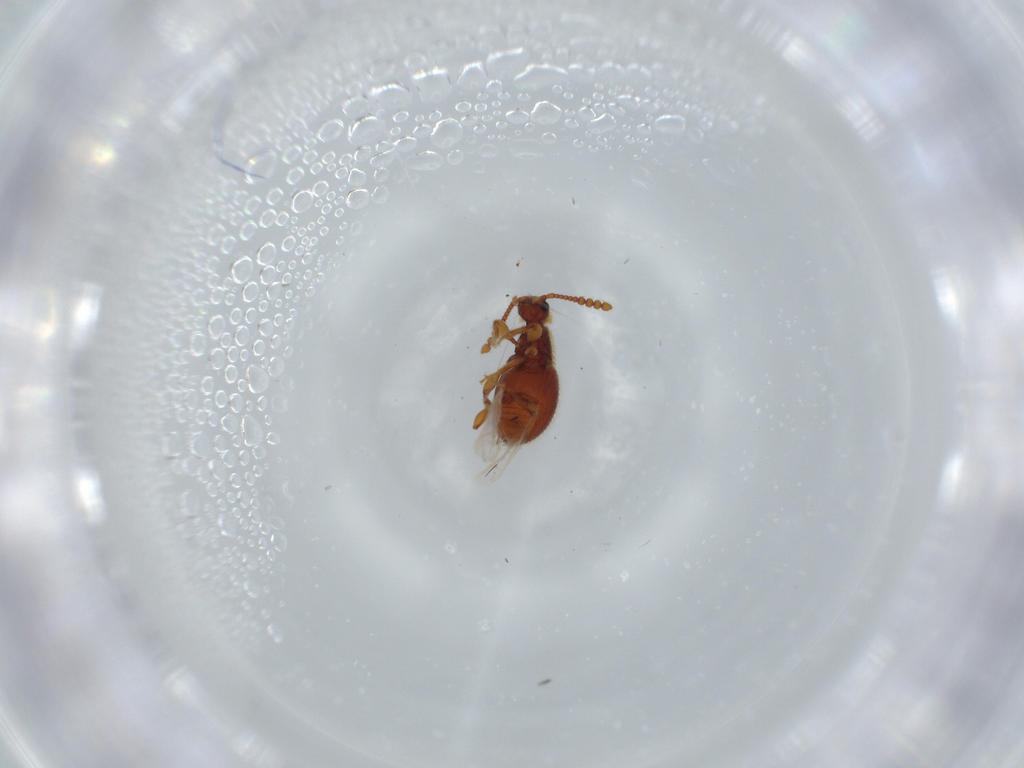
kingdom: Animalia
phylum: Arthropoda
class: Insecta
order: Coleoptera
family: Staphylinidae
